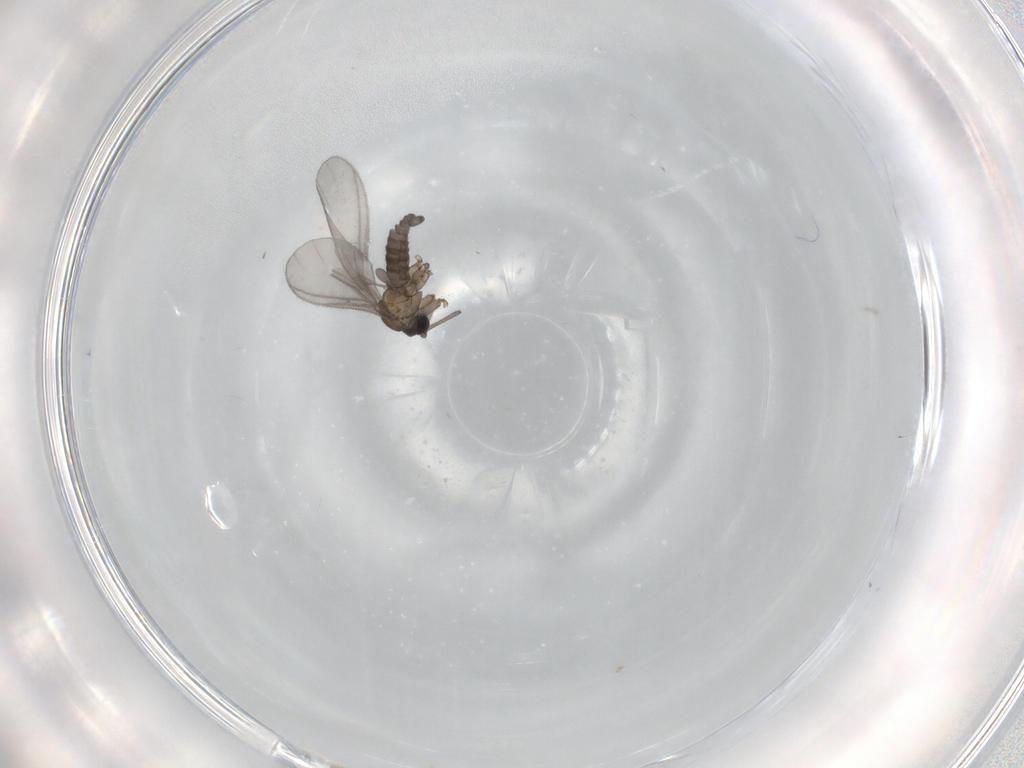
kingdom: Animalia
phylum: Arthropoda
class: Insecta
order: Diptera
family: Sciaridae
